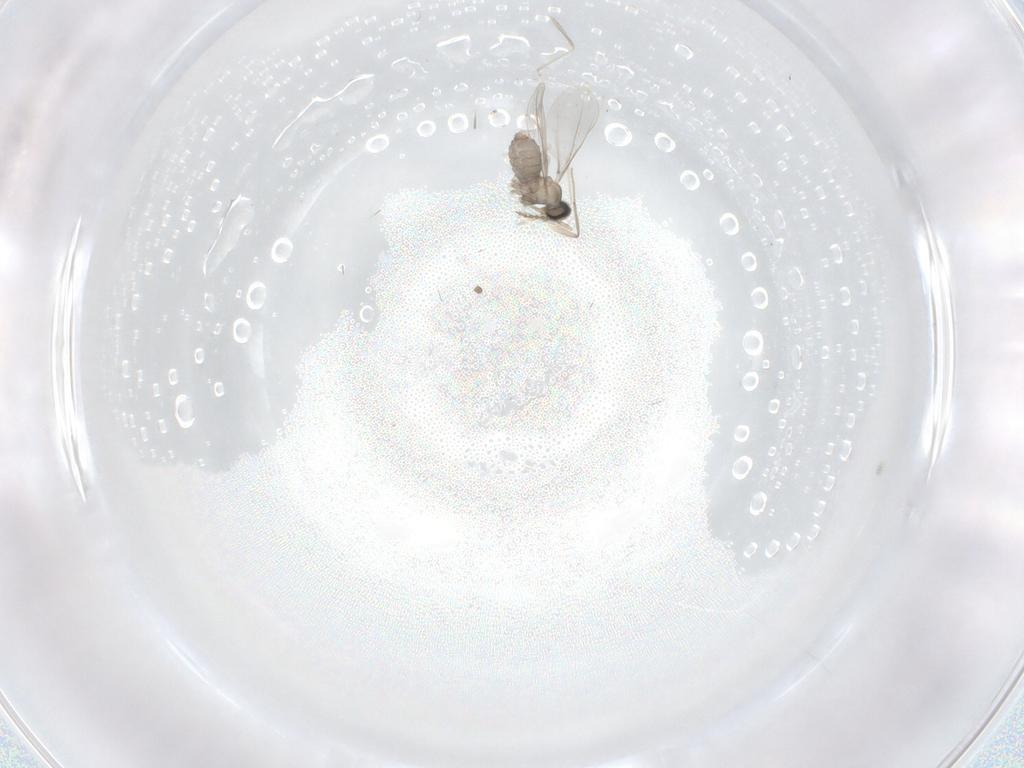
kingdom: Animalia
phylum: Arthropoda
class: Insecta
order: Diptera
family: Cecidomyiidae
